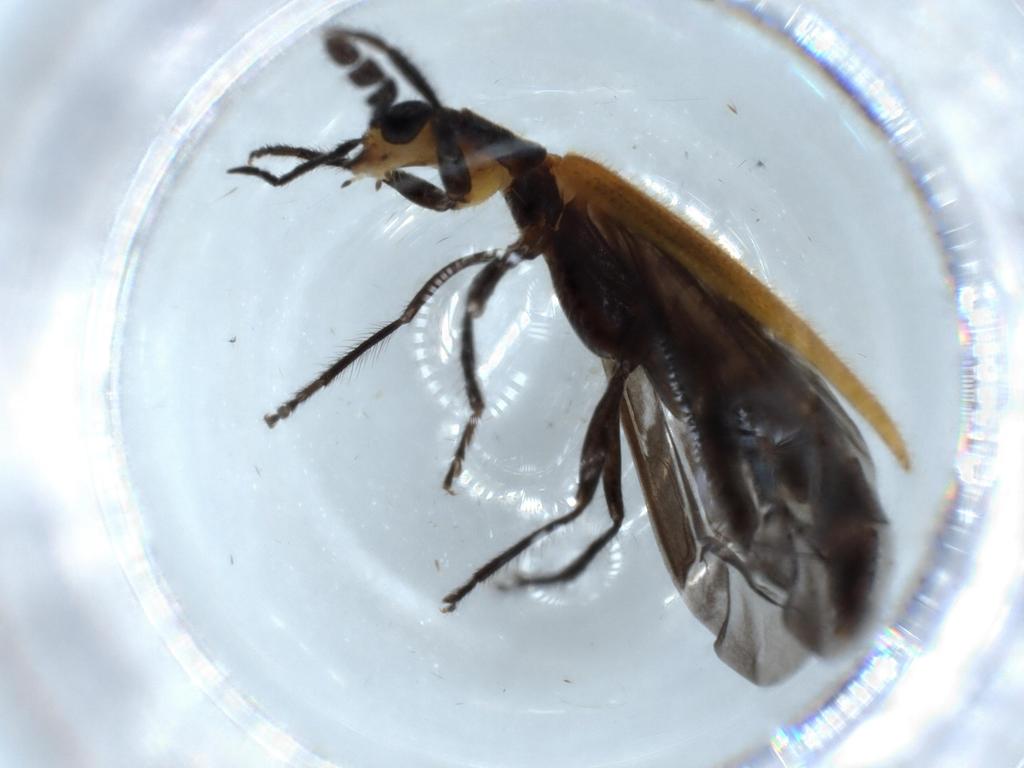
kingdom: Animalia
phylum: Arthropoda
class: Insecta
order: Coleoptera
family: Cleridae
